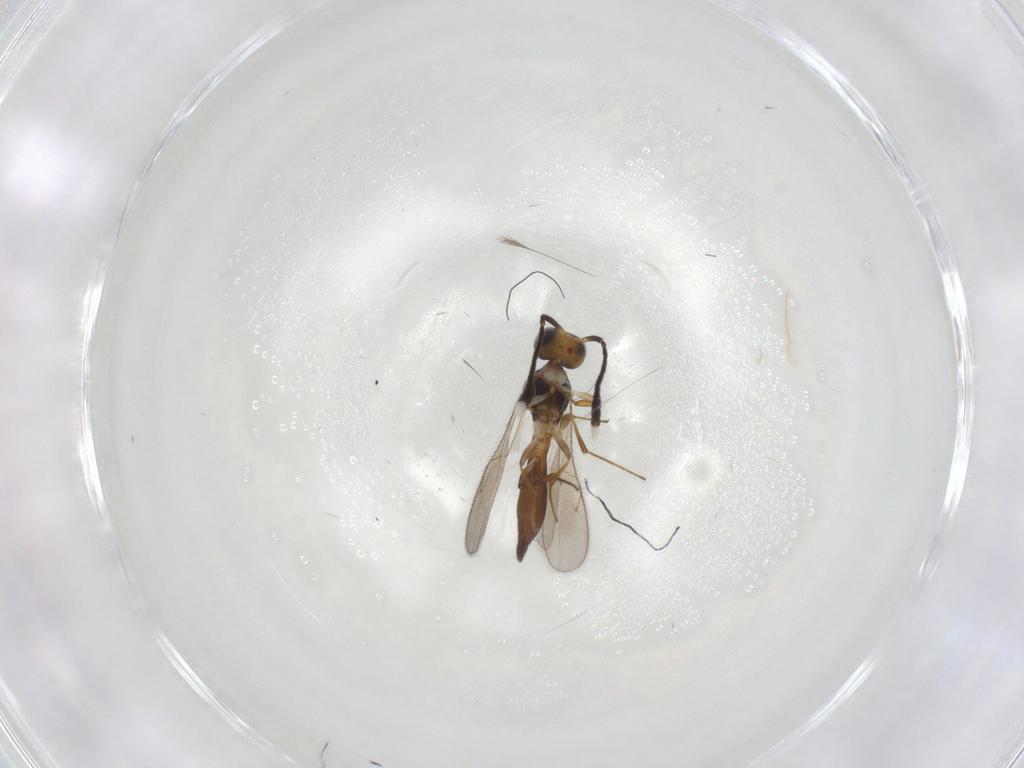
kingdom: Animalia
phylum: Arthropoda
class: Insecta
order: Hymenoptera
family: Scelionidae
